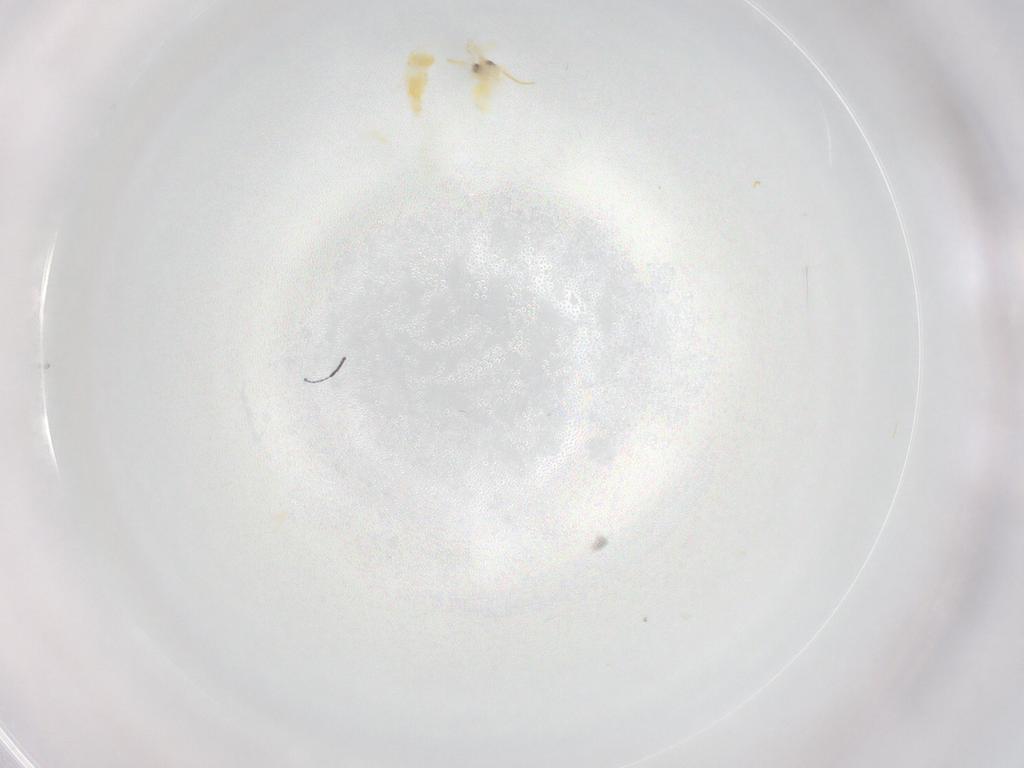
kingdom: Animalia
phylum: Arthropoda
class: Insecta
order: Hemiptera
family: Aleyrodidae
